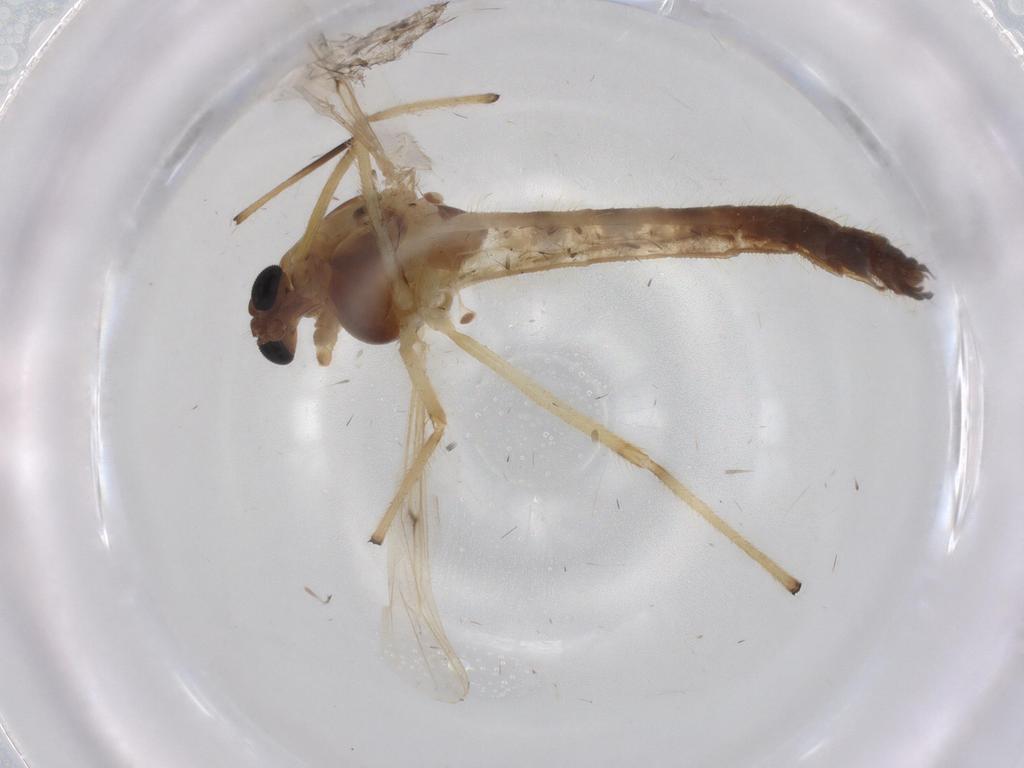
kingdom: Animalia
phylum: Arthropoda
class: Insecta
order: Diptera
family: Chironomidae
